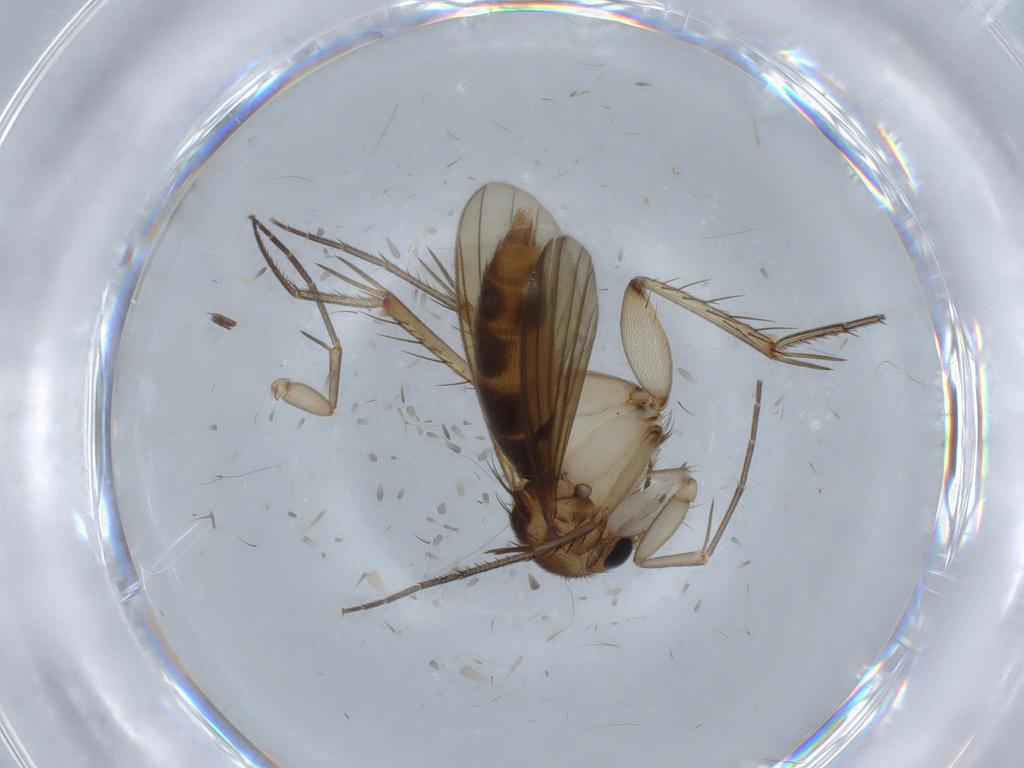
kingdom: Animalia
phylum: Arthropoda
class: Insecta
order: Diptera
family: Mycetophilidae
